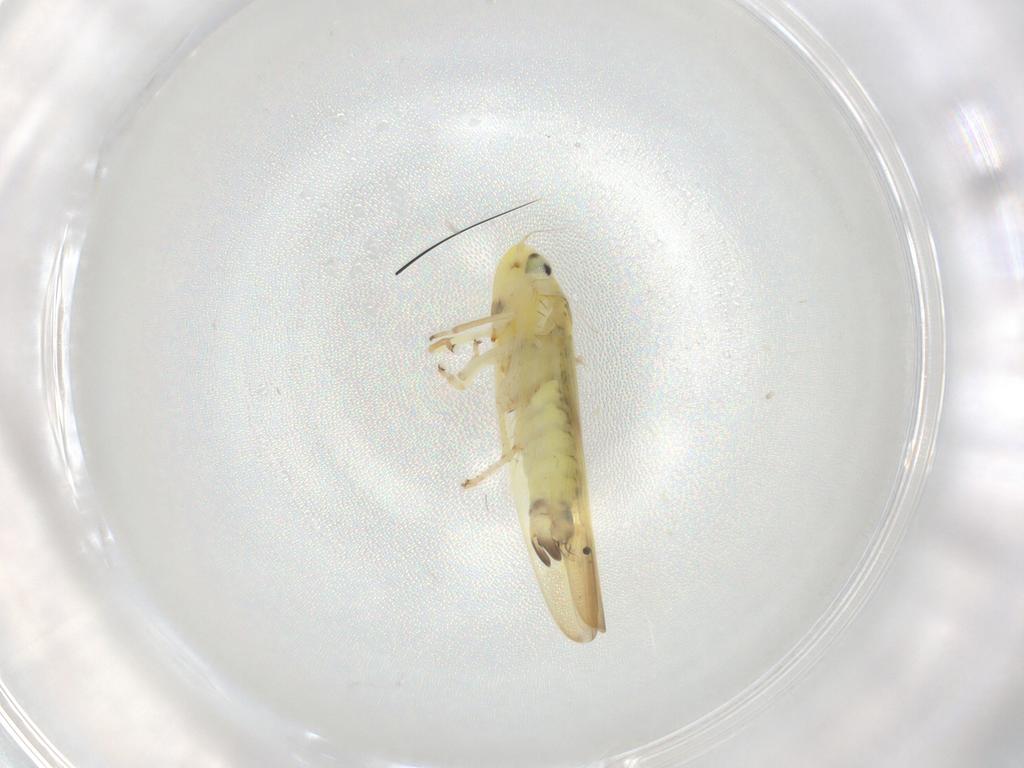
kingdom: Animalia
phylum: Arthropoda
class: Insecta
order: Hemiptera
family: Cicadellidae
